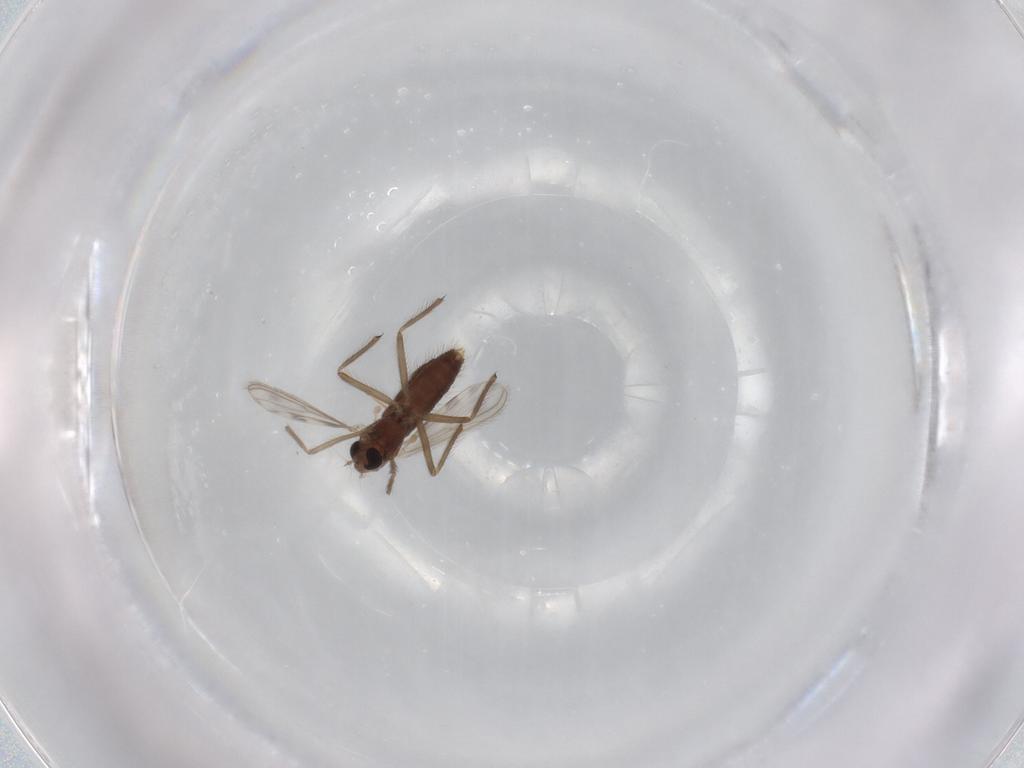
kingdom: Animalia
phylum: Arthropoda
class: Insecta
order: Diptera
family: Chironomidae
